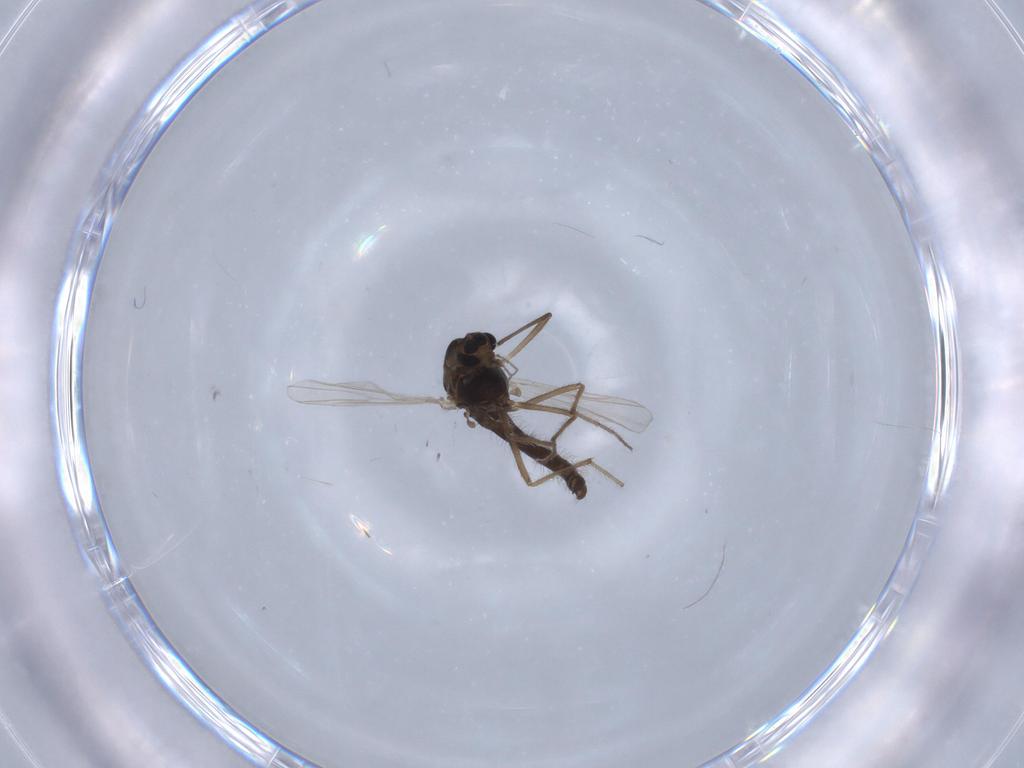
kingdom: Animalia
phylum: Arthropoda
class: Insecta
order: Diptera
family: Chironomidae
